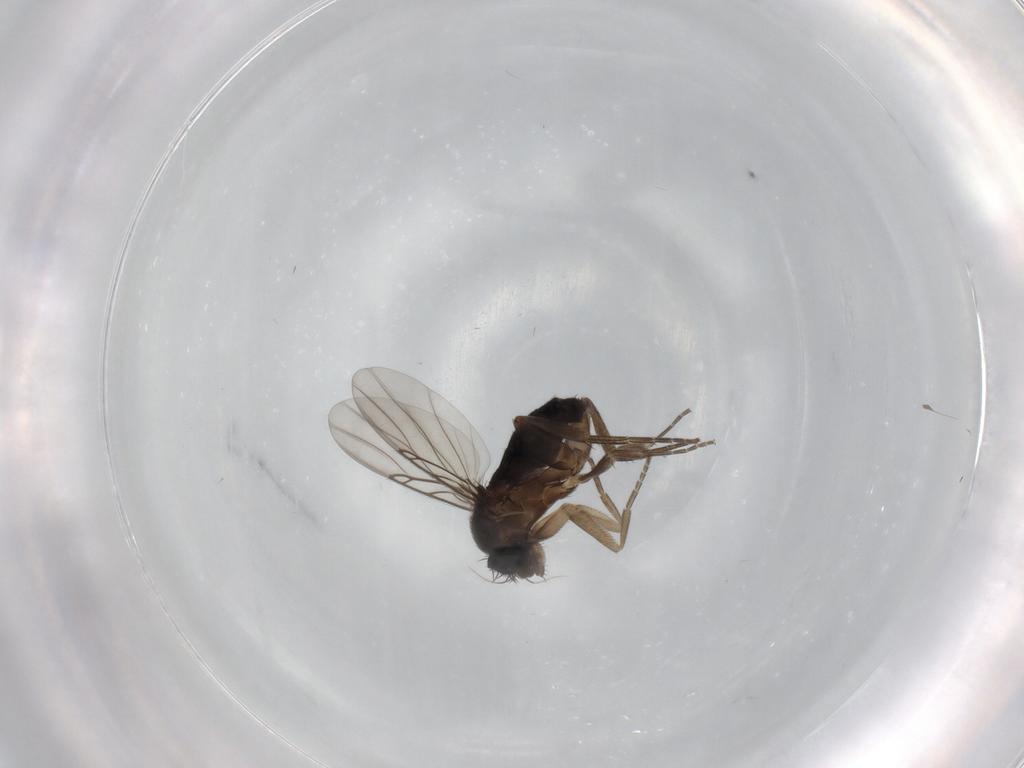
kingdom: Animalia
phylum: Arthropoda
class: Insecta
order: Diptera
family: Phoridae
